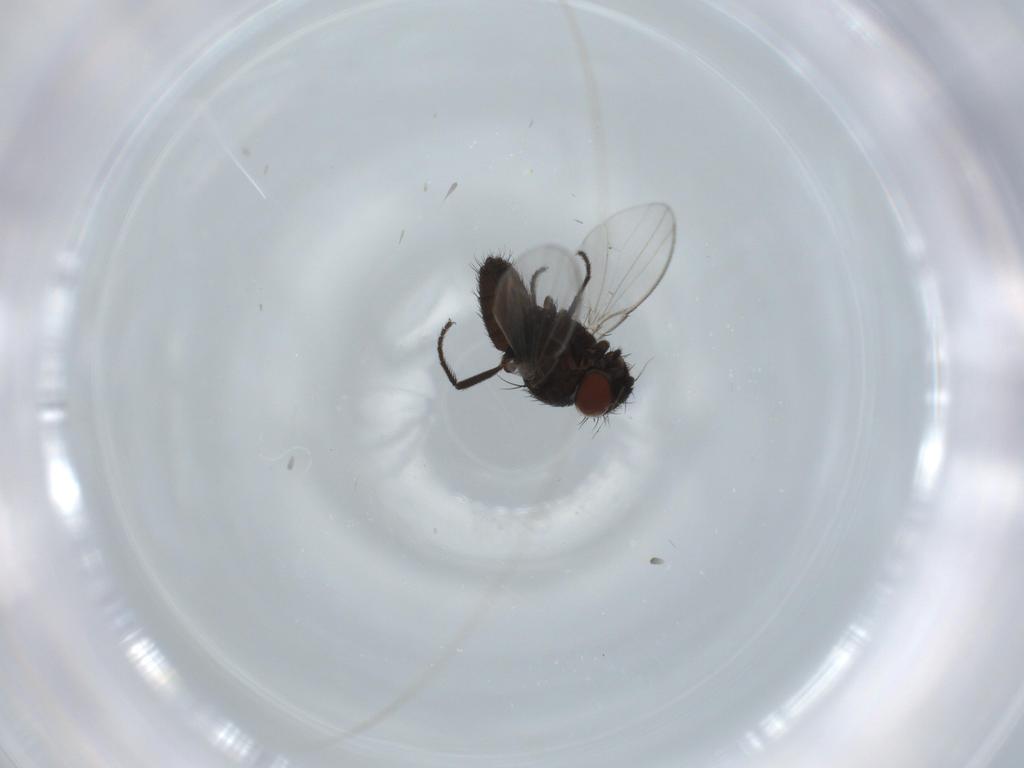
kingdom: Animalia
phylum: Arthropoda
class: Insecta
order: Diptera
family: Milichiidae
